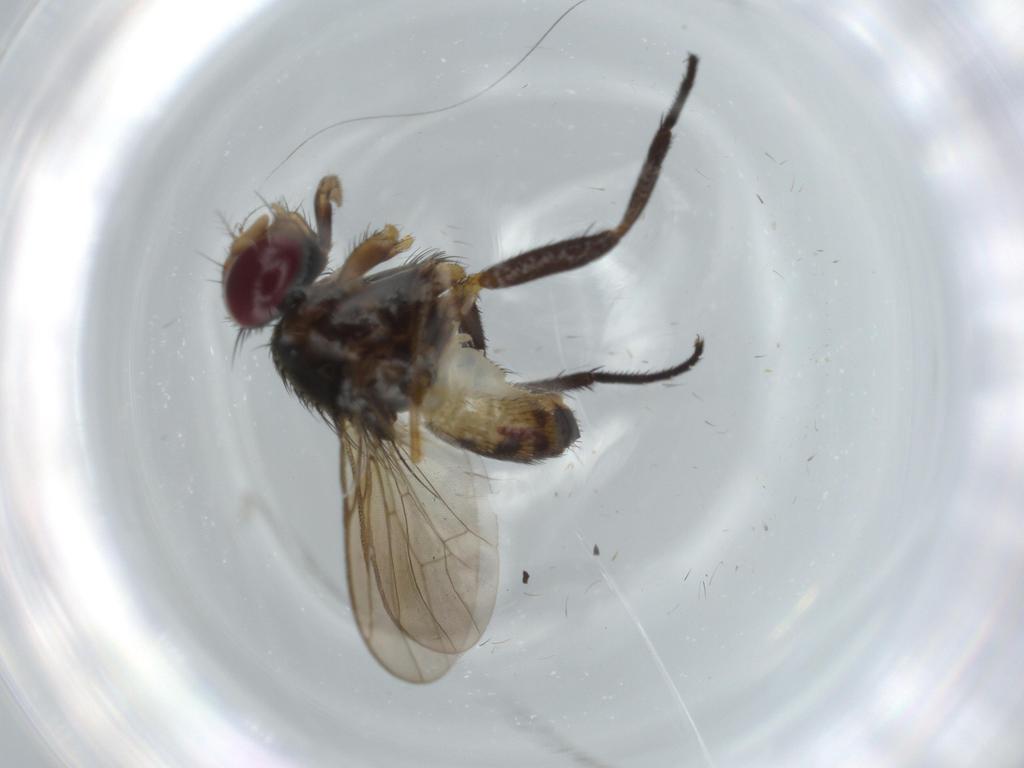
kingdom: Animalia
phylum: Arthropoda
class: Insecta
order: Diptera
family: Anthomyiidae
